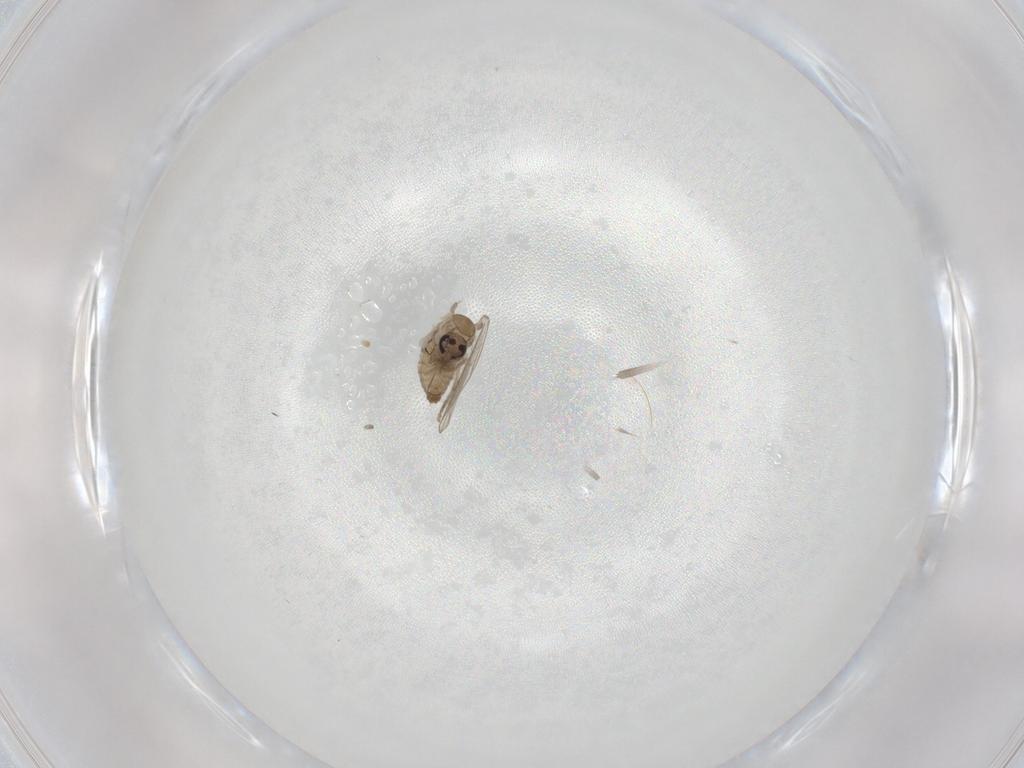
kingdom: Animalia
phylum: Arthropoda
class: Insecta
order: Diptera
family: Psychodidae
